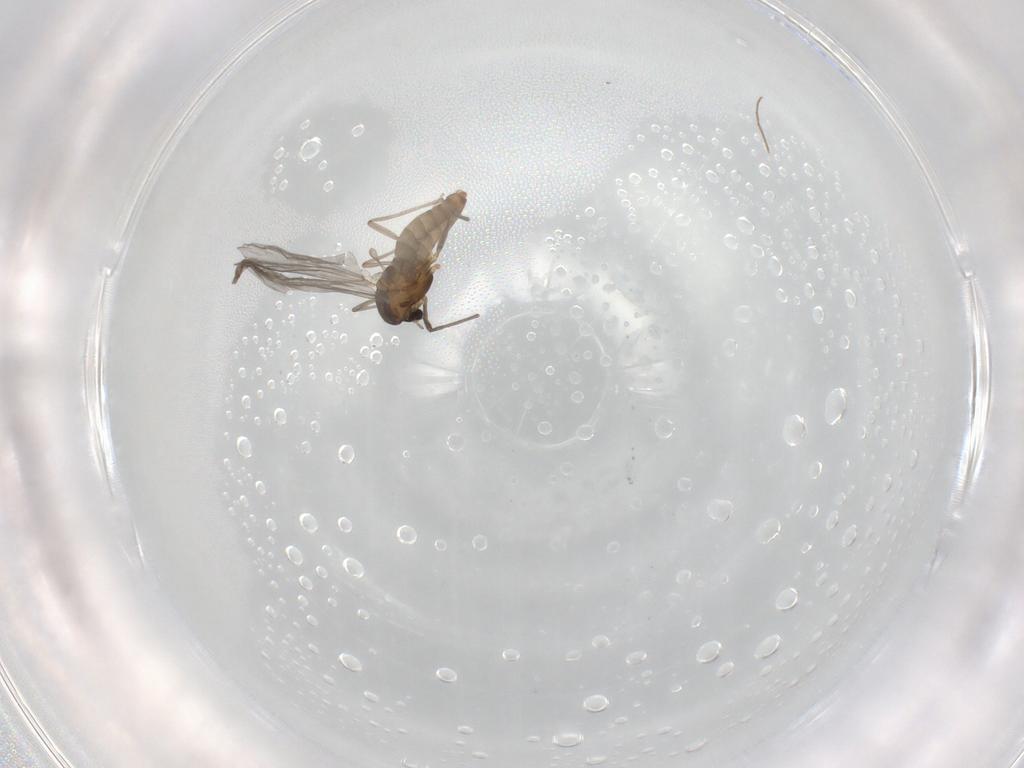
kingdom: Animalia
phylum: Arthropoda
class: Insecta
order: Diptera
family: Chironomidae
